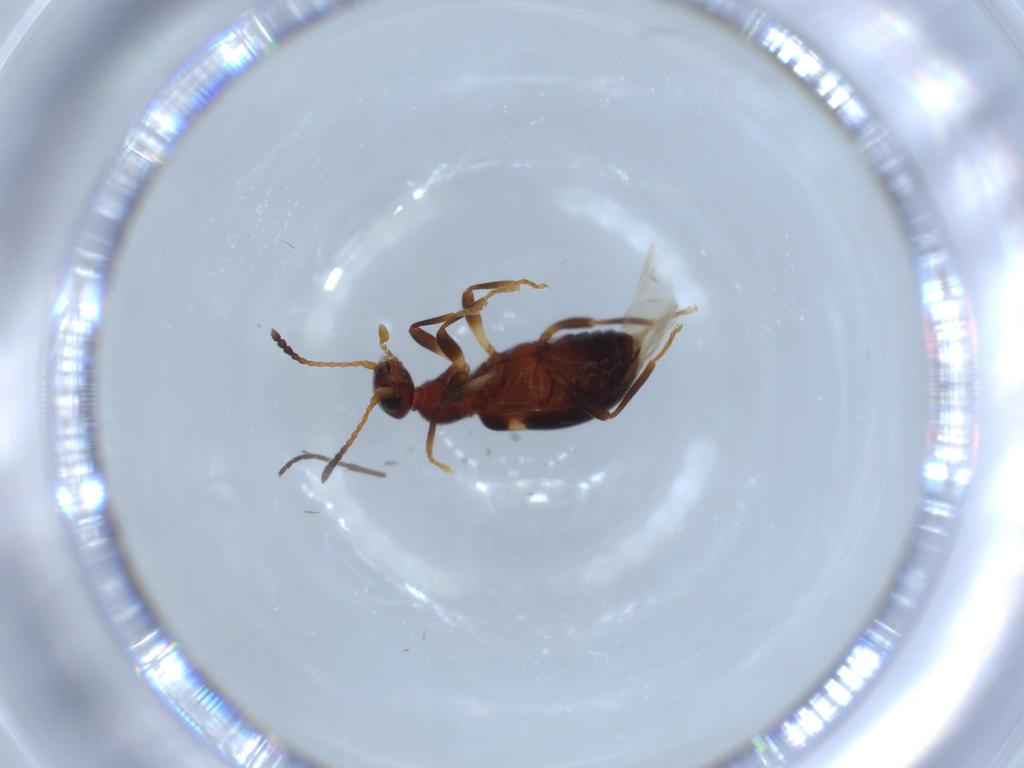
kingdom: Animalia
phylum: Arthropoda
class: Insecta
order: Coleoptera
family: Anthicidae
